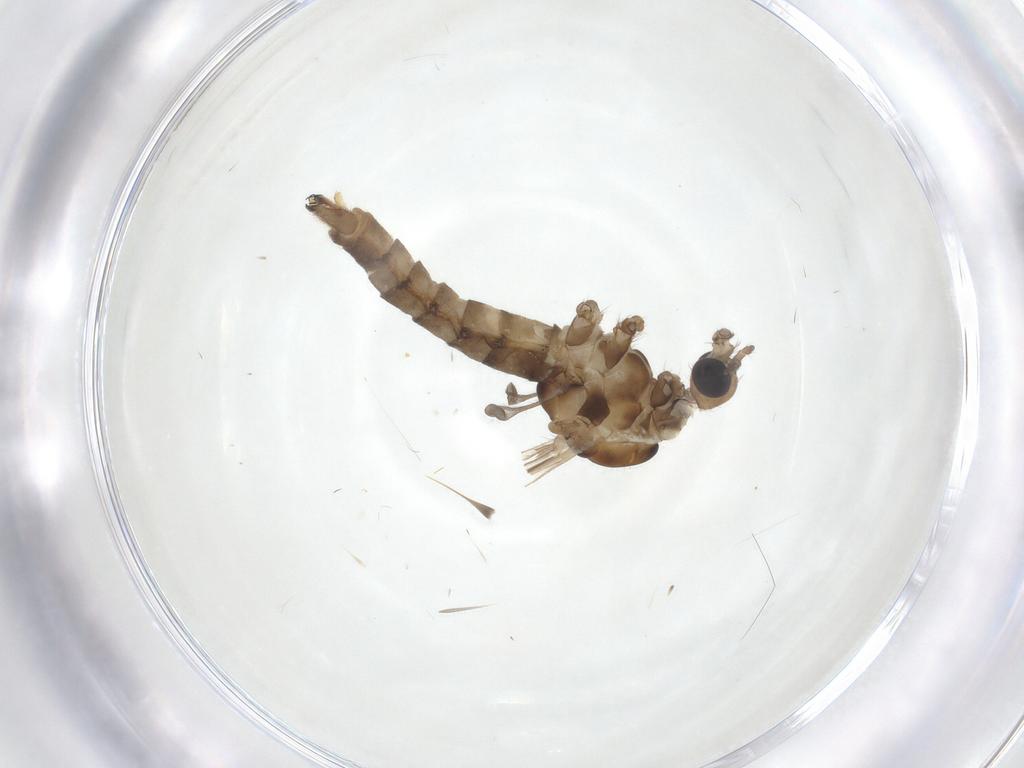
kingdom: Animalia
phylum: Arthropoda
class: Insecta
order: Diptera
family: Limoniidae
